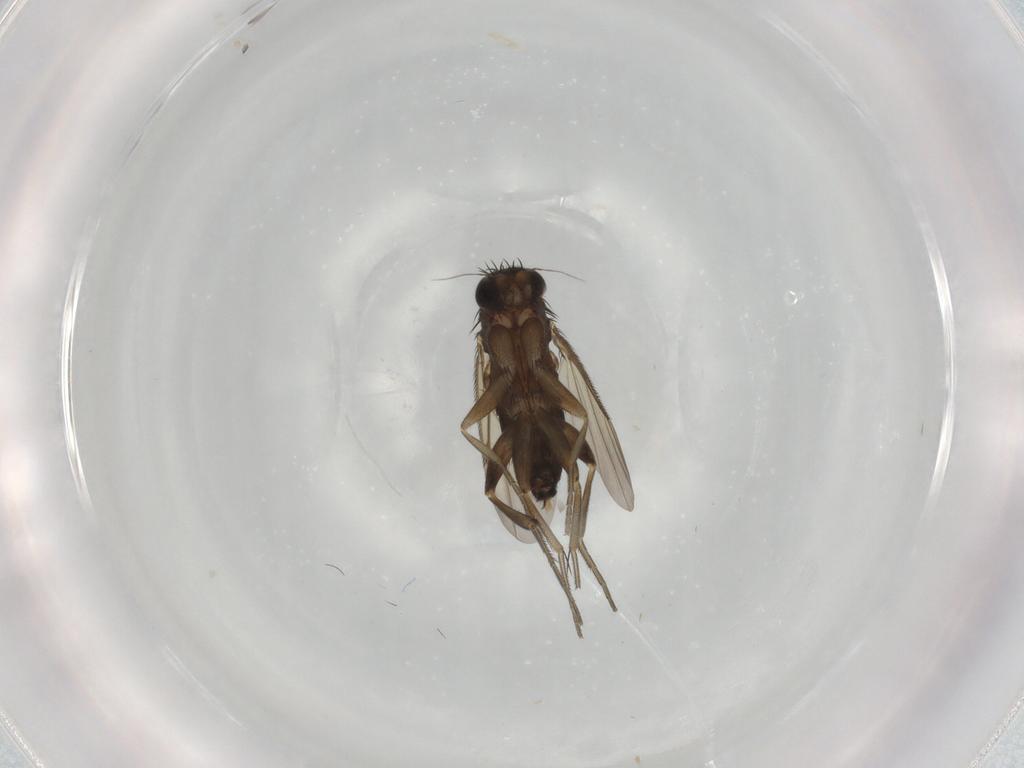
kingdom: Animalia
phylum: Arthropoda
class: Insecta
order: Diptera
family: Phoridae
